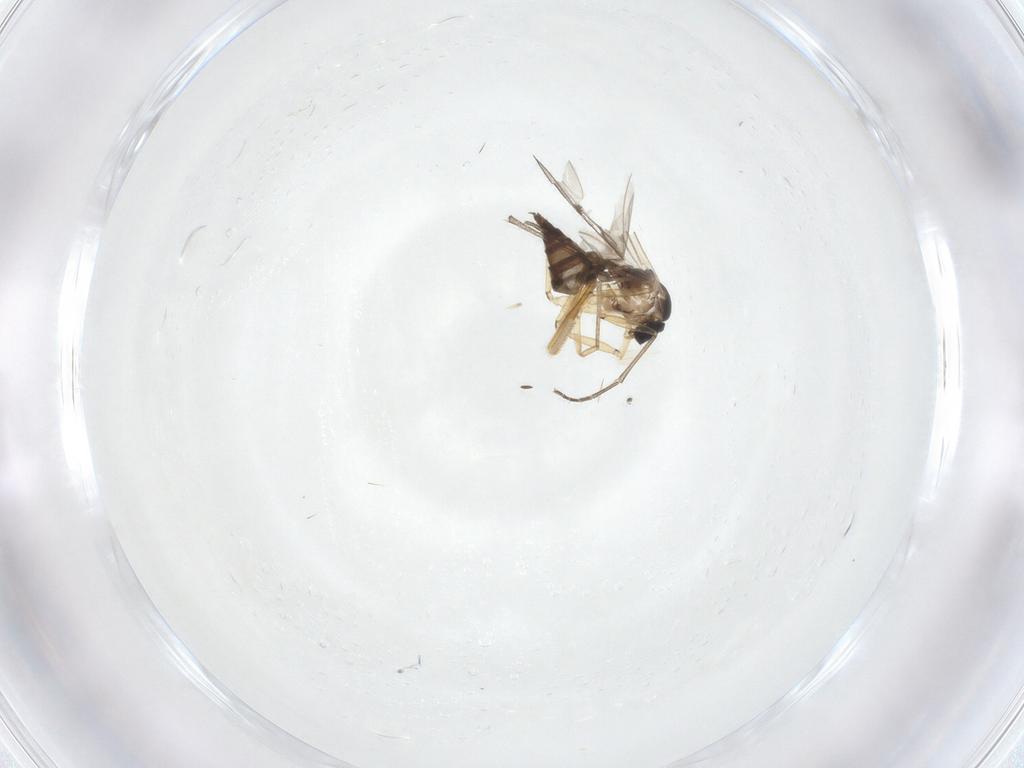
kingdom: Animalia
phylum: Arthropoda
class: Insecta
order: Diptera
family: Sciaridae
